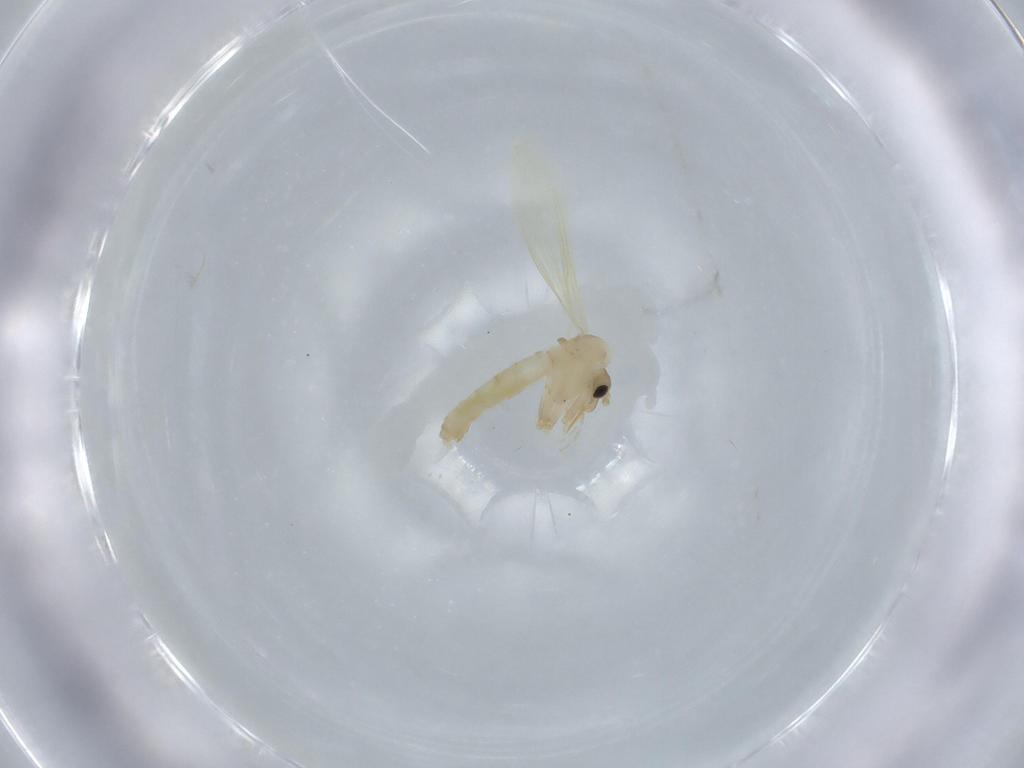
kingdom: Animalia
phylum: Arthropoda
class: Insecta
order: Diptera
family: Psychodidae
